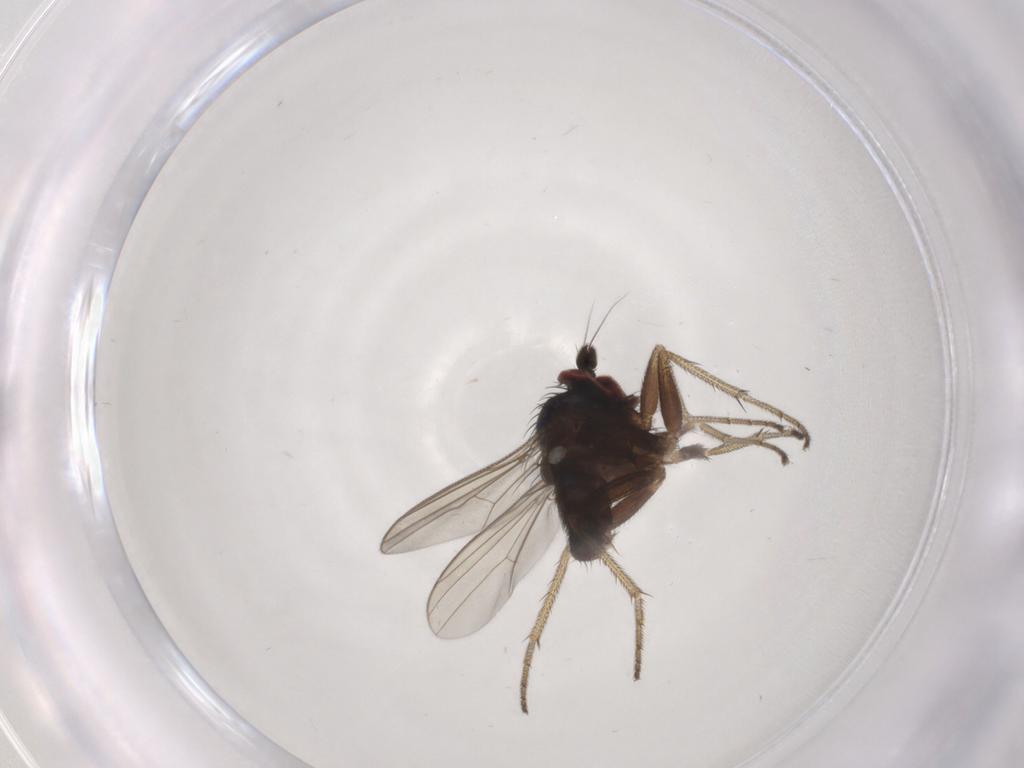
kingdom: Animalia
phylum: Arthropoda
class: Insecta
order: Diptera
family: Dolichopodidae
